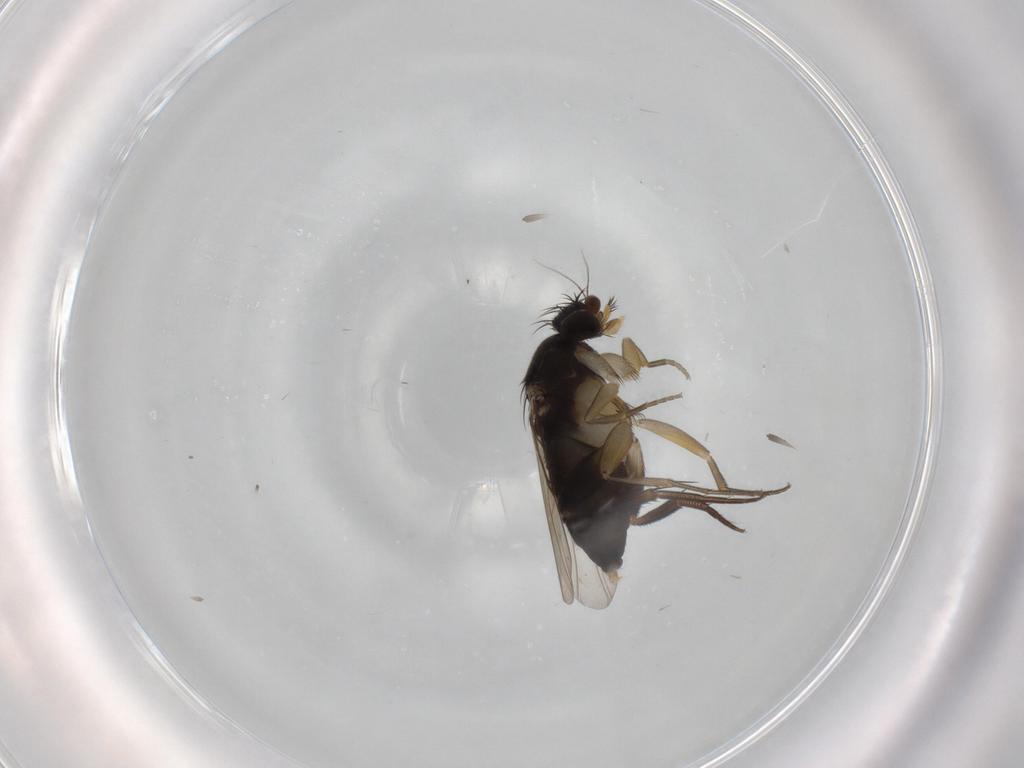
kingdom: Animalia
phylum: Arthropoda
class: Insecta
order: Diptera
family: Phoridae
